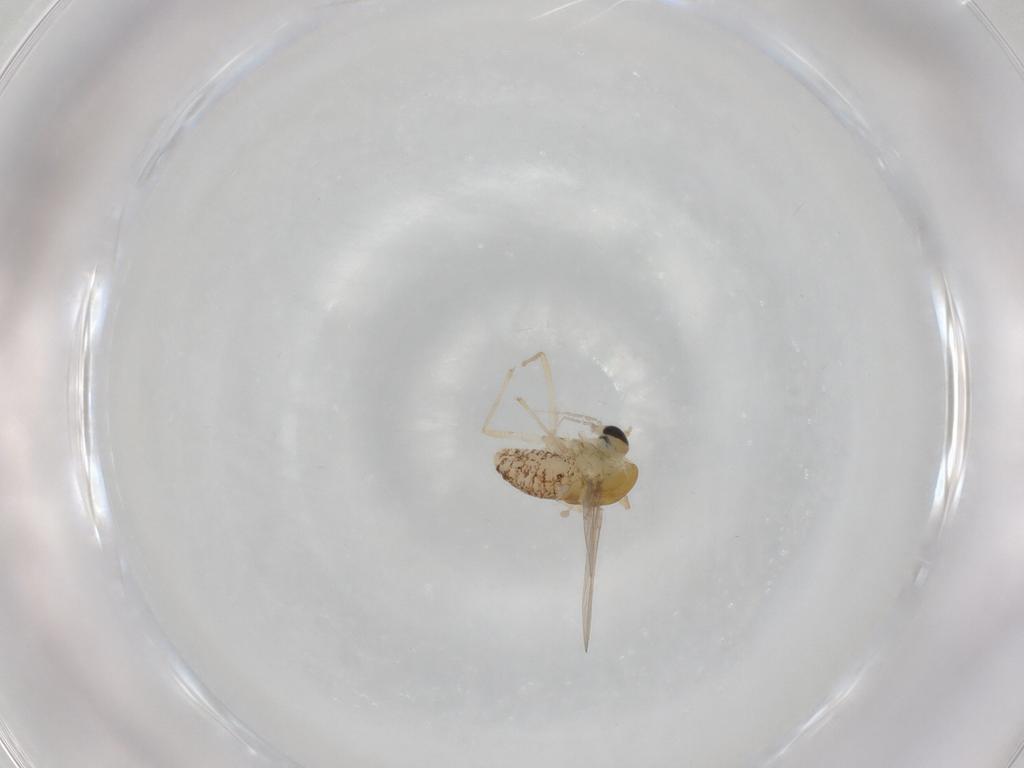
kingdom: Animalia
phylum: Arthropoda
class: Insecta
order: Diptera
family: Chironomidae
